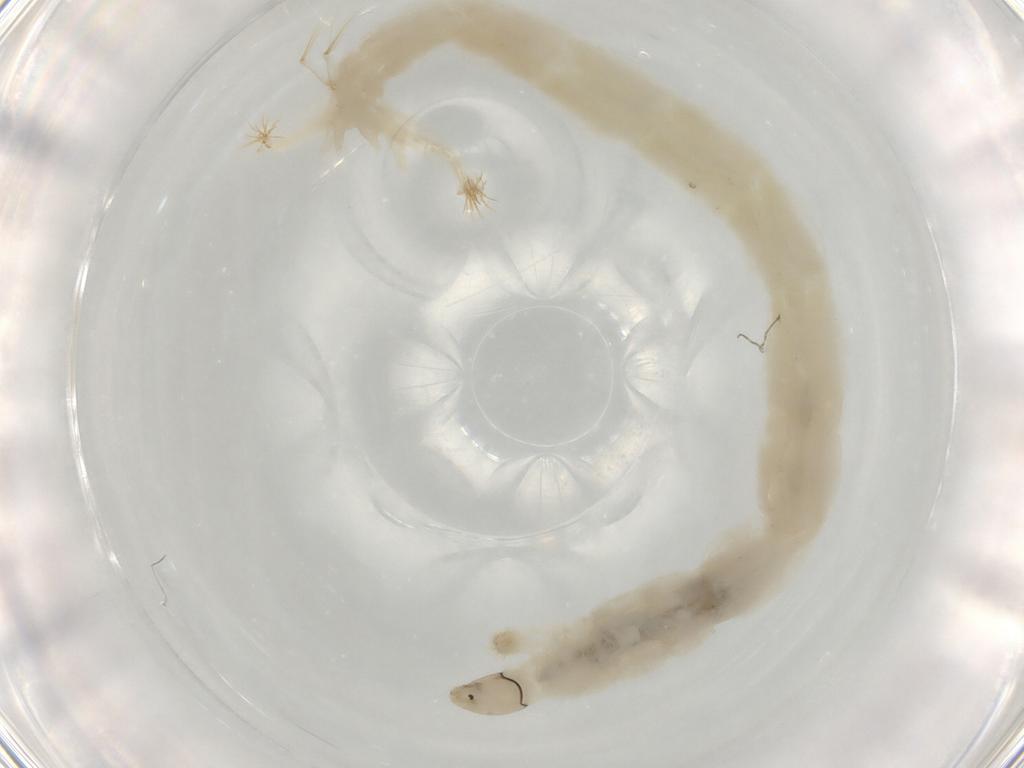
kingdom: Animalia
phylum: Arthropoda
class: Insecta
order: Diptera
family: Chironomidae
